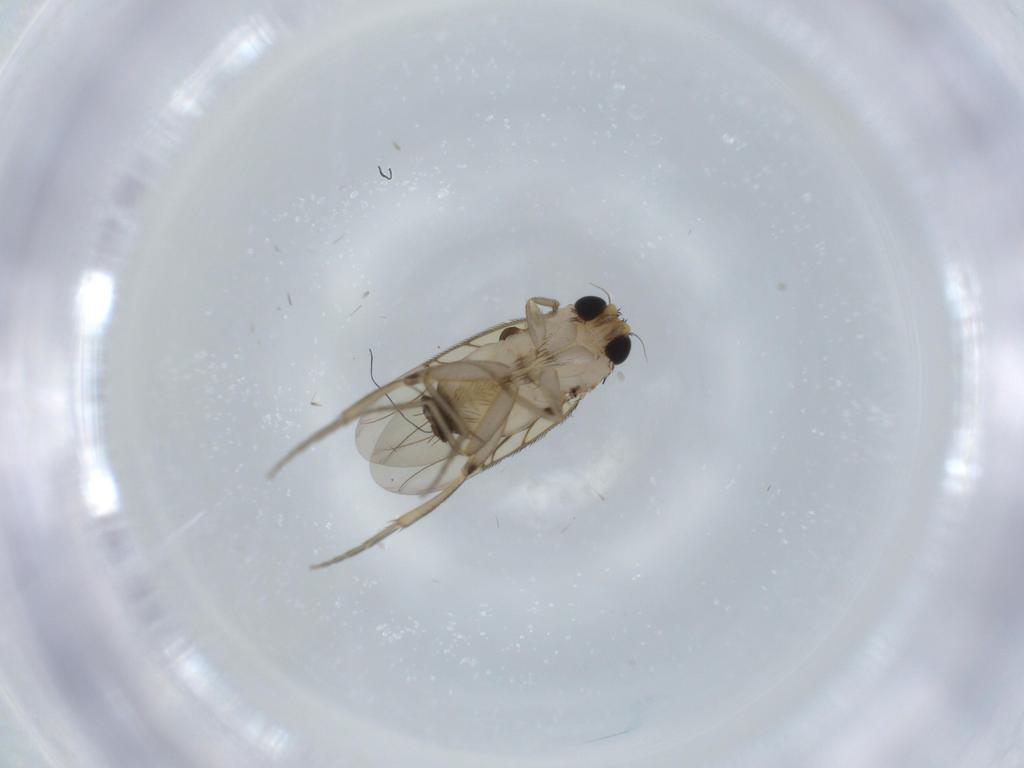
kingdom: Animalia
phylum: Arthropoda
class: Insecta
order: Diptera
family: Phoridae
